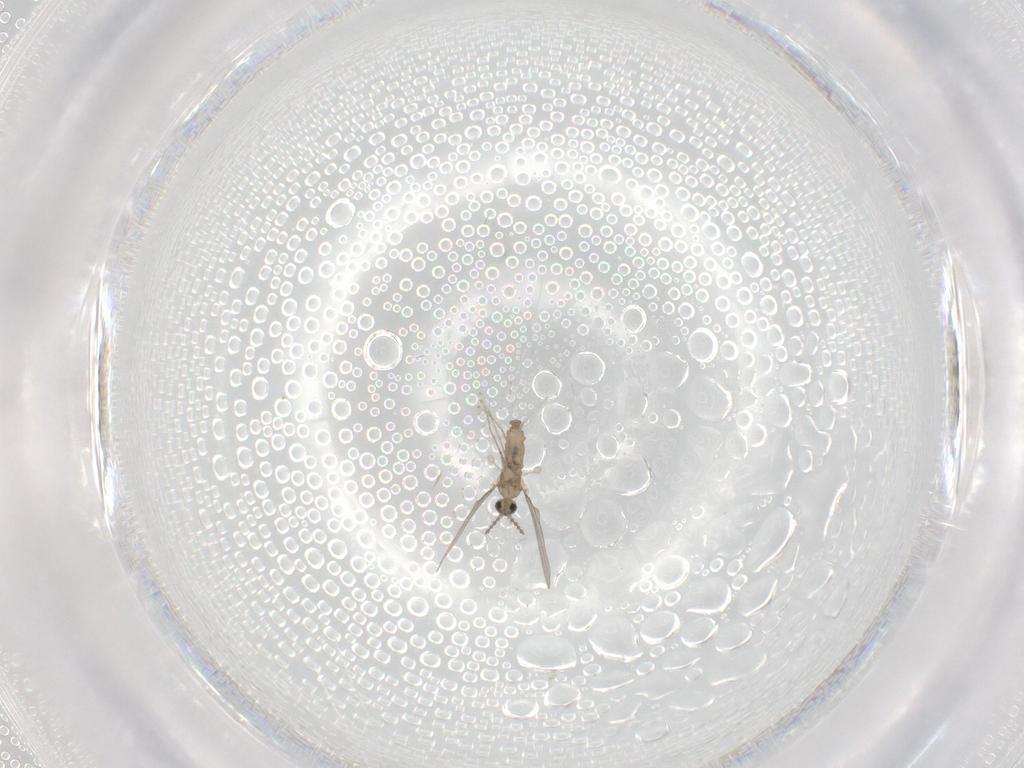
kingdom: Animalia
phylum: Arthropoda
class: Insecta
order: Diptera
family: Cecidomyiidae
